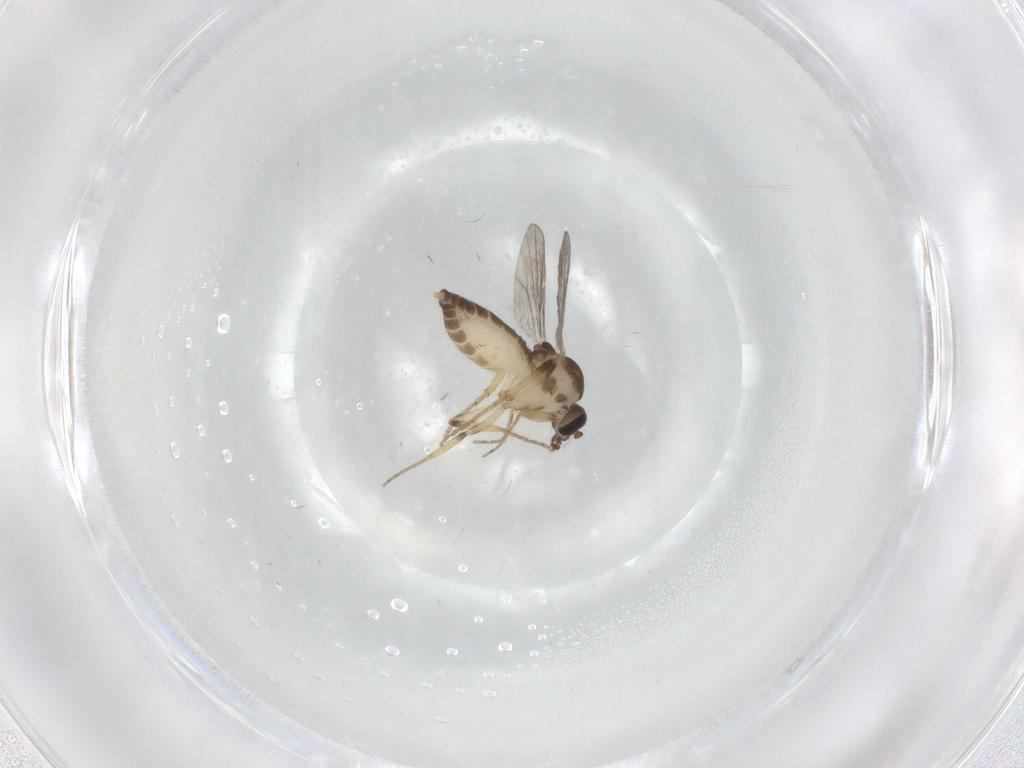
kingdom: Animalia
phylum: Arthropoda
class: Insecta
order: Diptera
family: Ceratopogonidae
